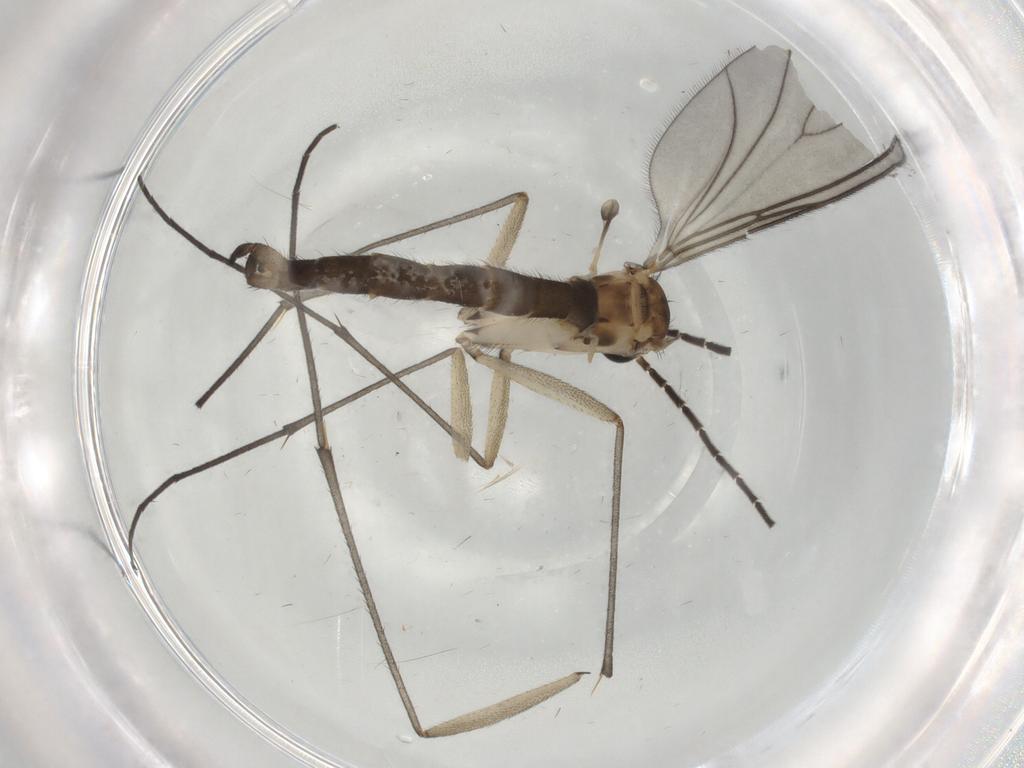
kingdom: Animalia
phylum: Arthropoda
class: Insecta
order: Diptera
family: Sciaridae
